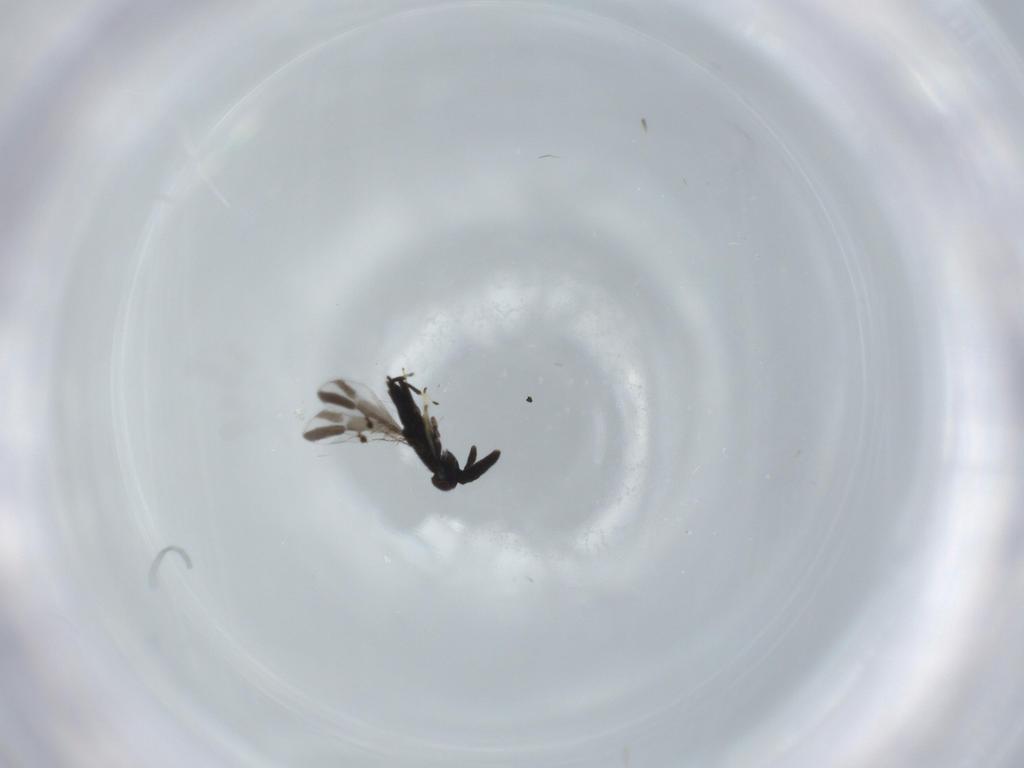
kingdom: Animalia
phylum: Arthropoda
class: Insecta
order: Hymenoptera
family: Encyrtidae
